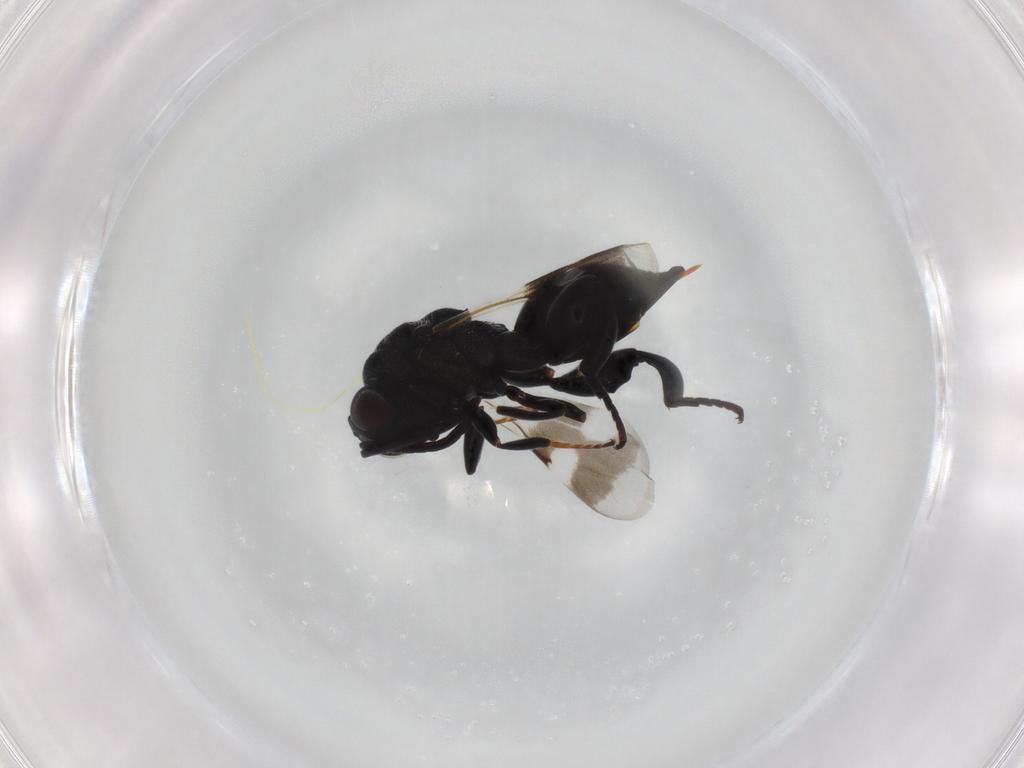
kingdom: Animalia
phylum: Arthropoda
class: Insecta
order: Hymenoptera
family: Chalcididae
